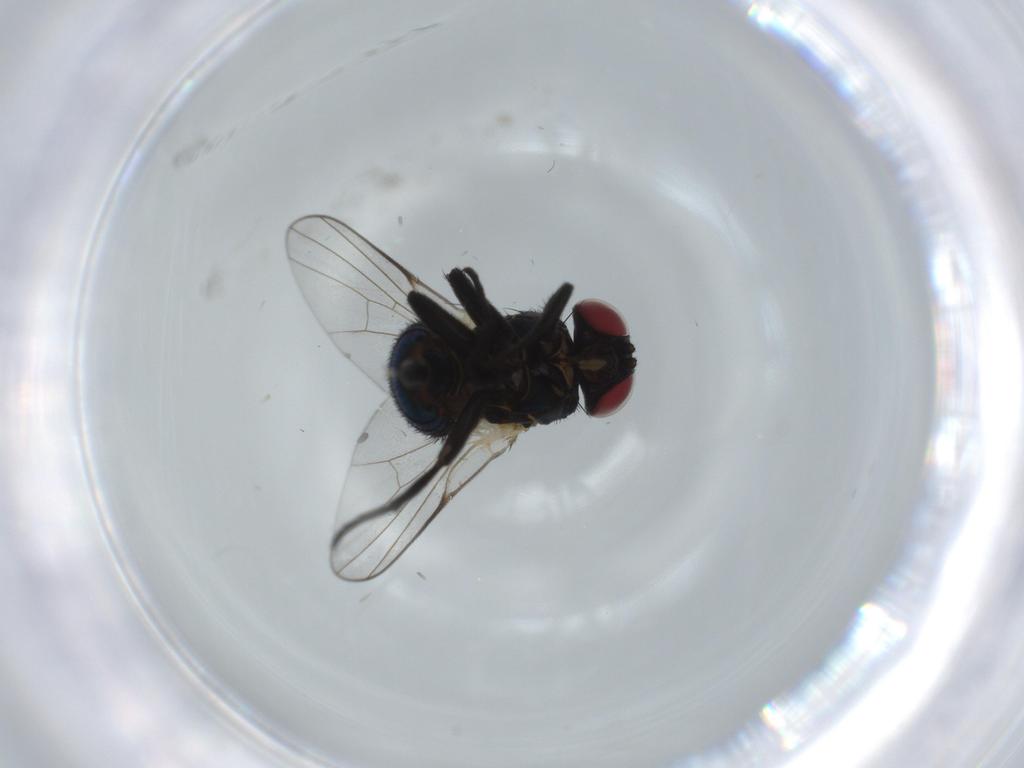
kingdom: Animalia
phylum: Arthropoda
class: Insecta
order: Diptera
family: Agromyzidae
